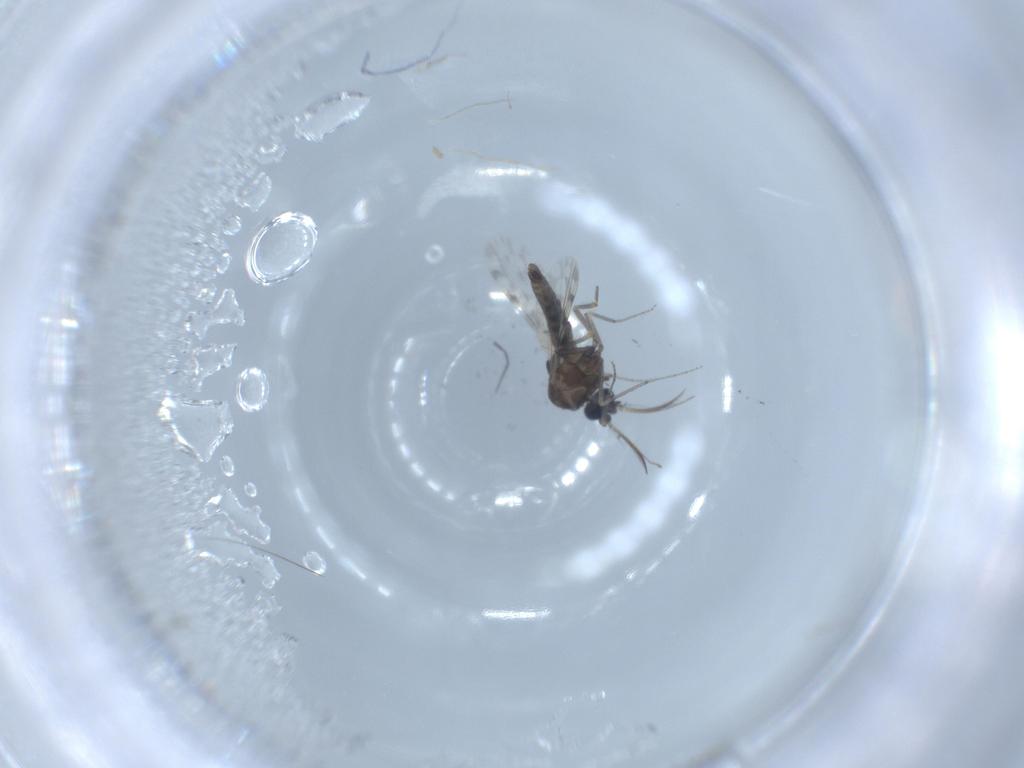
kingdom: Animalia
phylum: Arthropoda
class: Insecta
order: Diptera
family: Ceratopogonidae
